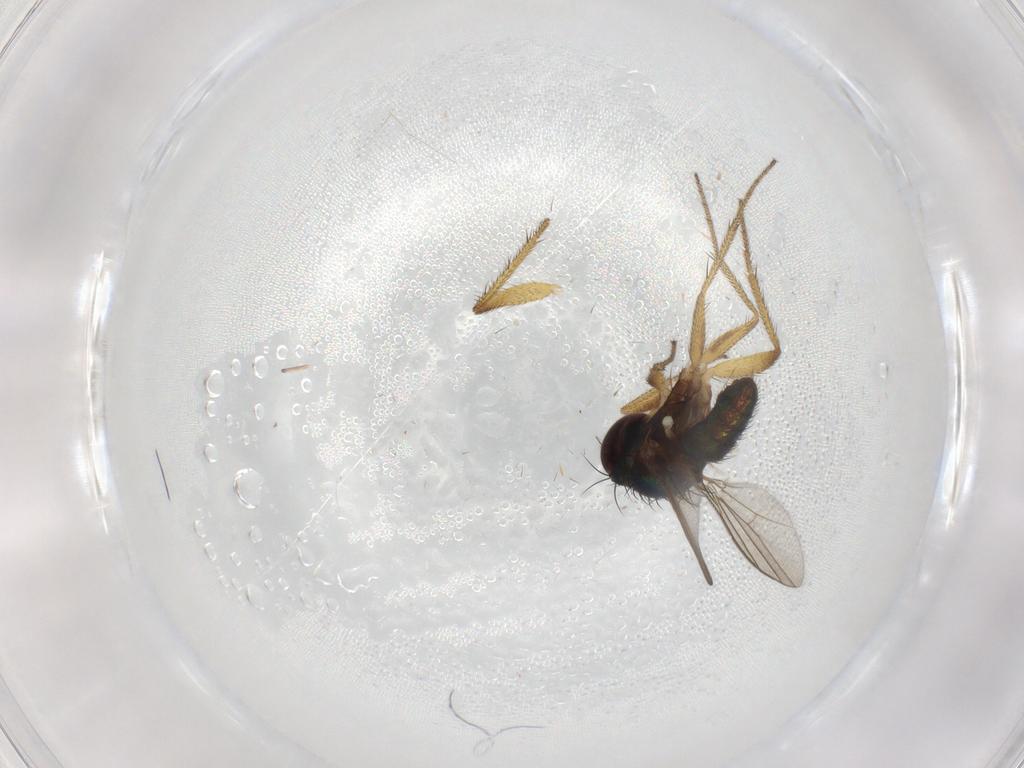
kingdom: Animalia
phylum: Arthropoda
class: Insecta
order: Diptera
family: Dolichopodidae
